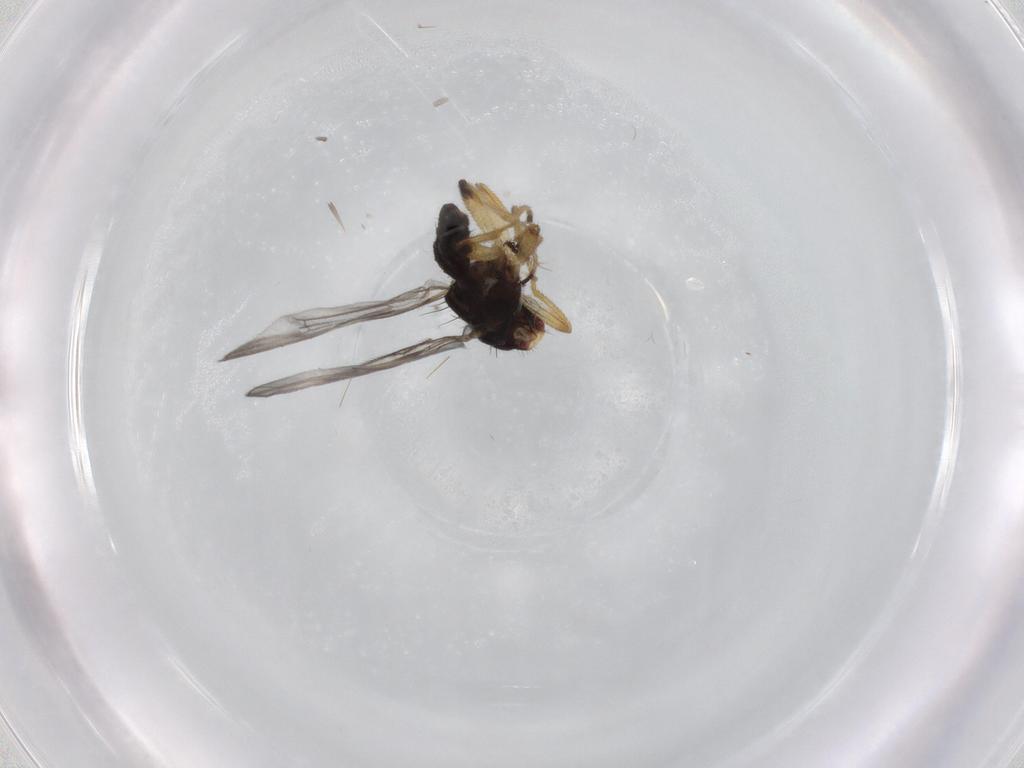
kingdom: Animalia
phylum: Arthropoda
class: Insecta
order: Diptera
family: Periscelididae
